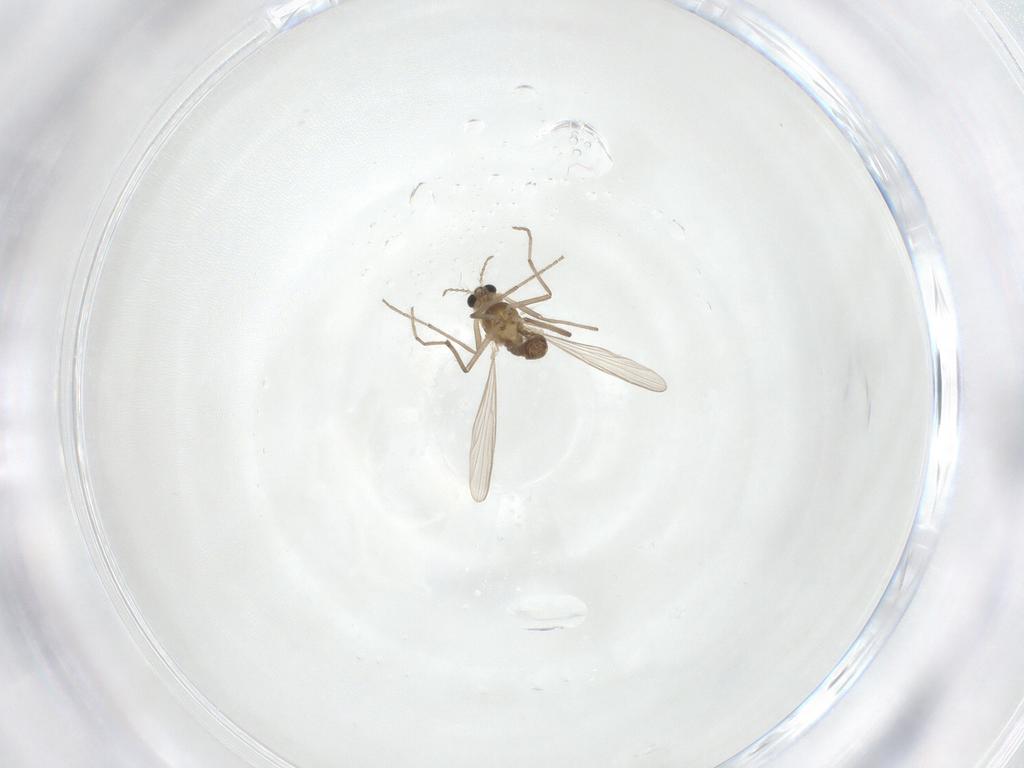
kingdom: Animalia
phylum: Arthropoda
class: Insecta
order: Diptera
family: Chironomidae
